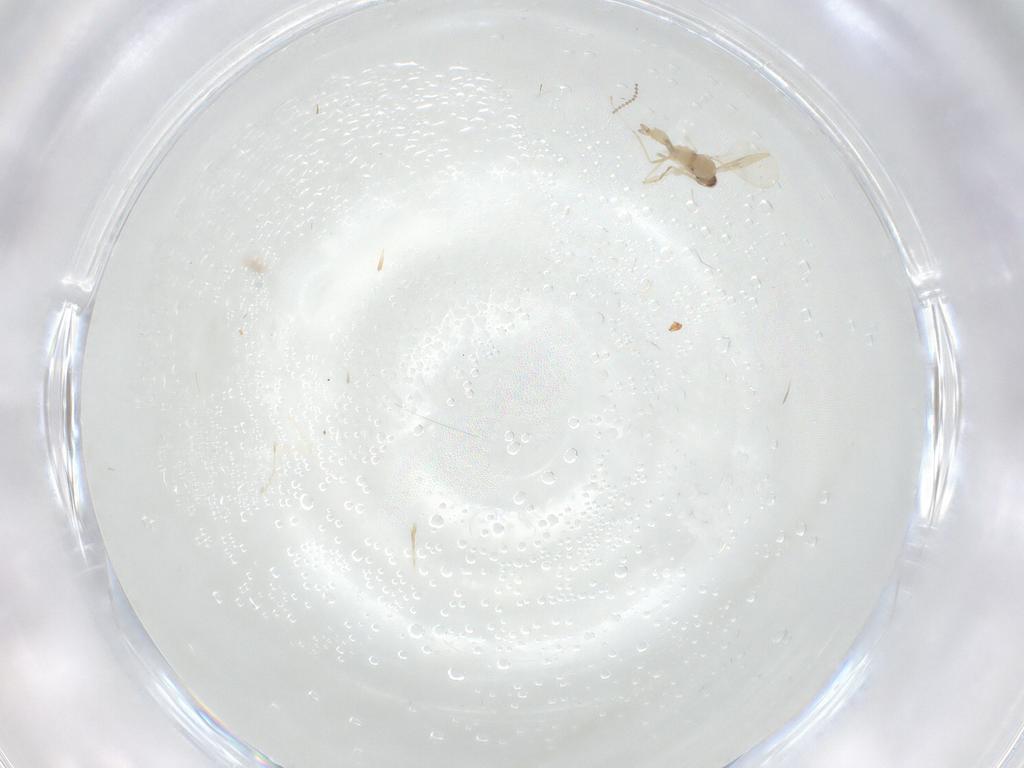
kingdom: Animalia
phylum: Arthropoda
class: Insecta
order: Diptera
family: Cecidomyiidae
